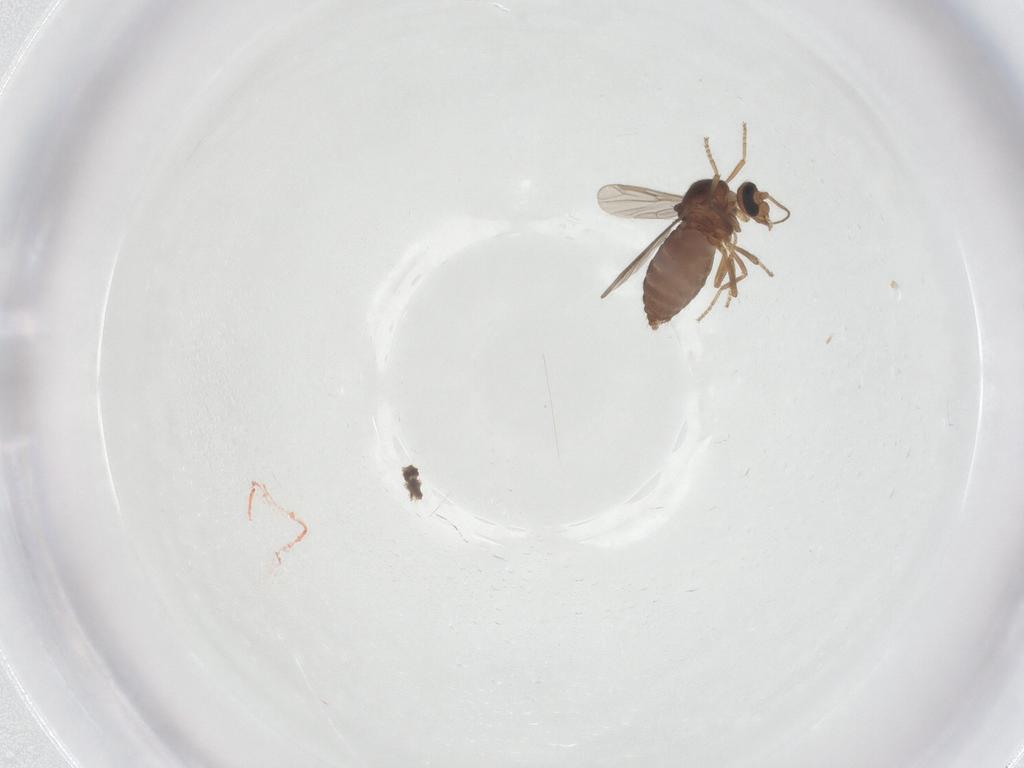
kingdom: Animalia
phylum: Arthropoda
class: Insecta
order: Diptera
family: Ceratopogonidae
